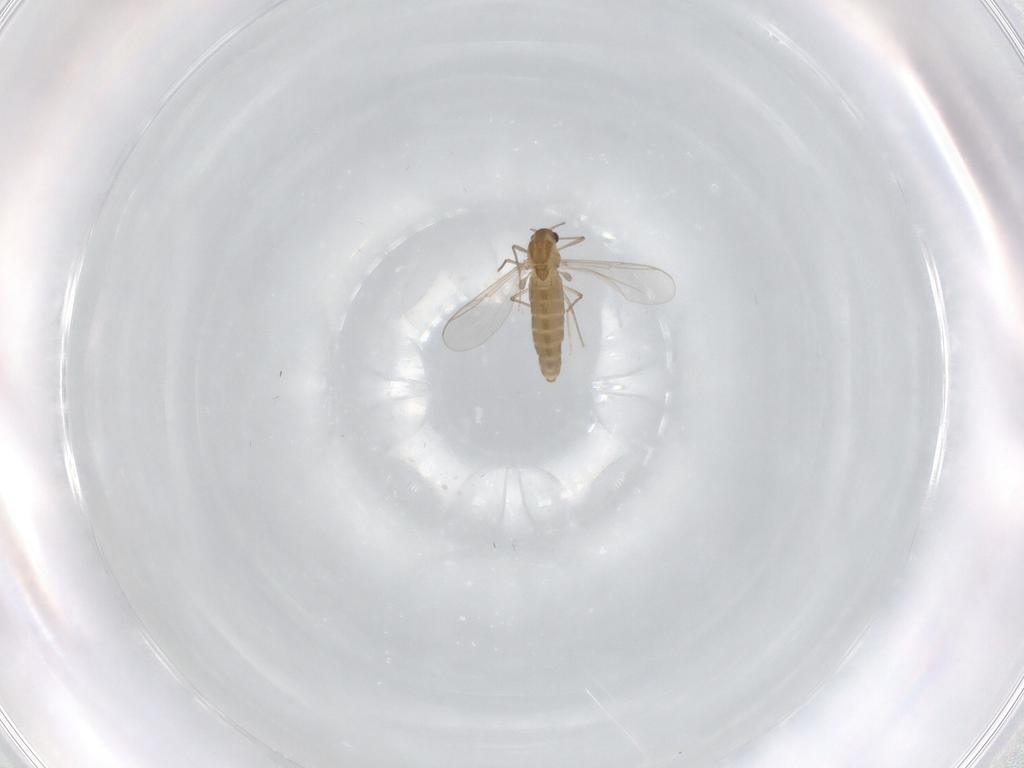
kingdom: Animalia
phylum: Arthropoda
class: Insecta
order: Diptera
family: Chironomidae
